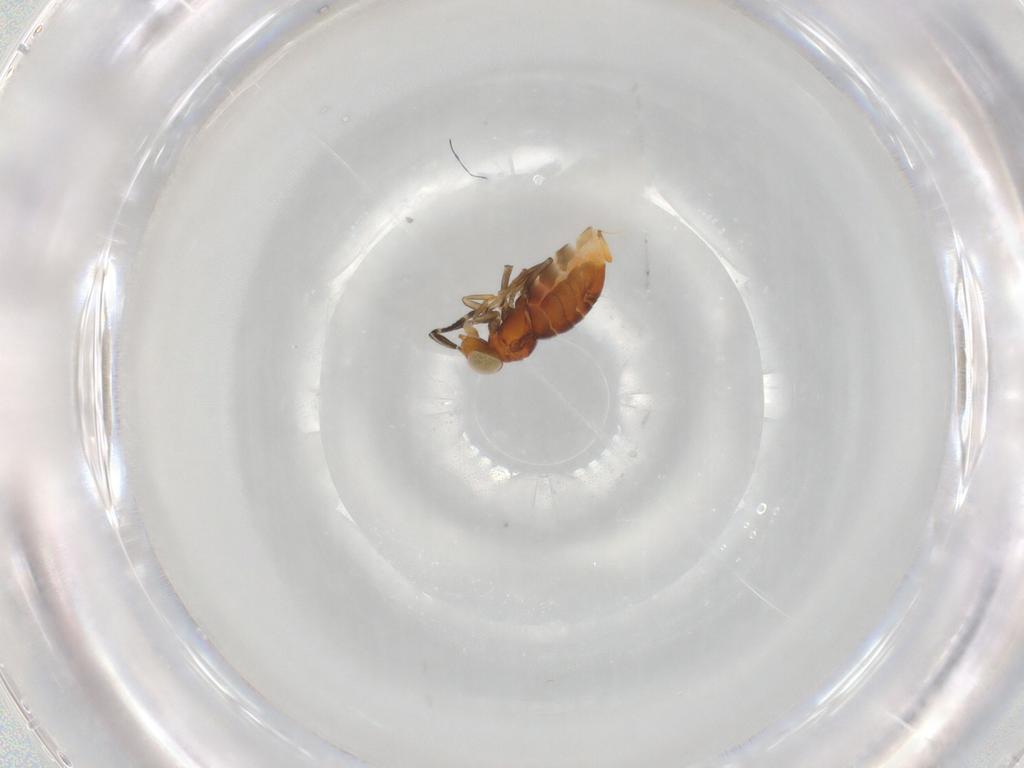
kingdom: Animalia
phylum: Arthropoda
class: Insecta
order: Hymenoptera
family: Encyrtidae
